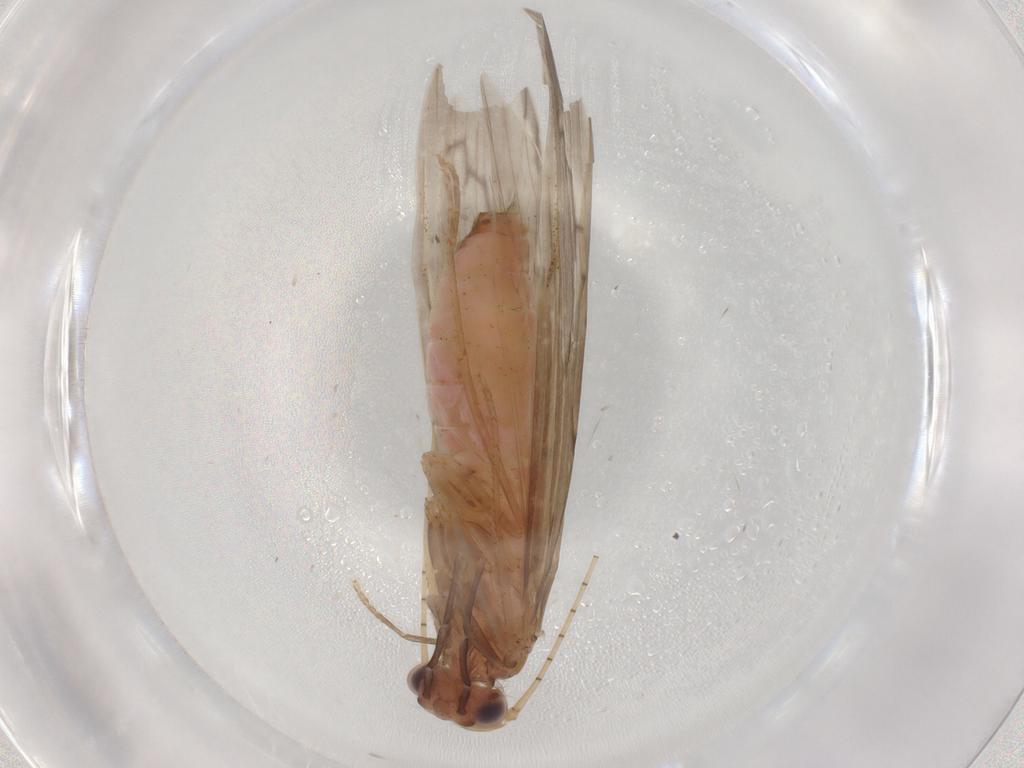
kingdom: Animalia
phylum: Arthropoda
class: Insecta
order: Trichoptera
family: Leptoceridae
